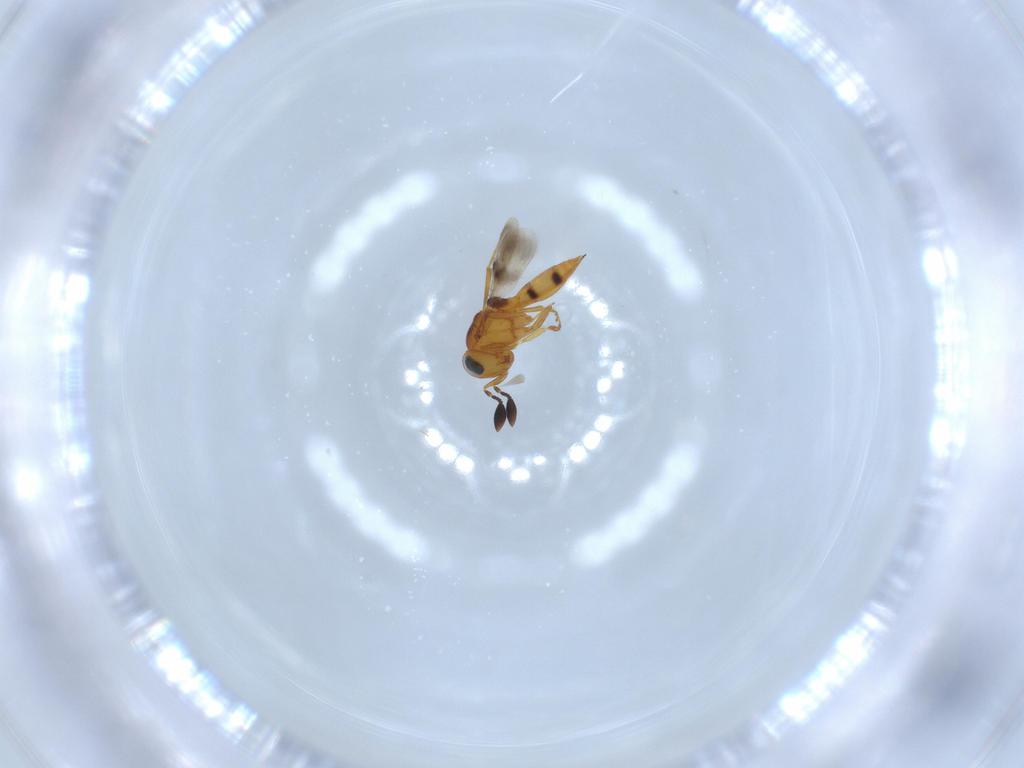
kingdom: Animalia
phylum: Arthropoda
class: Insecta
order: Hymenoptera
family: Scelionidae
